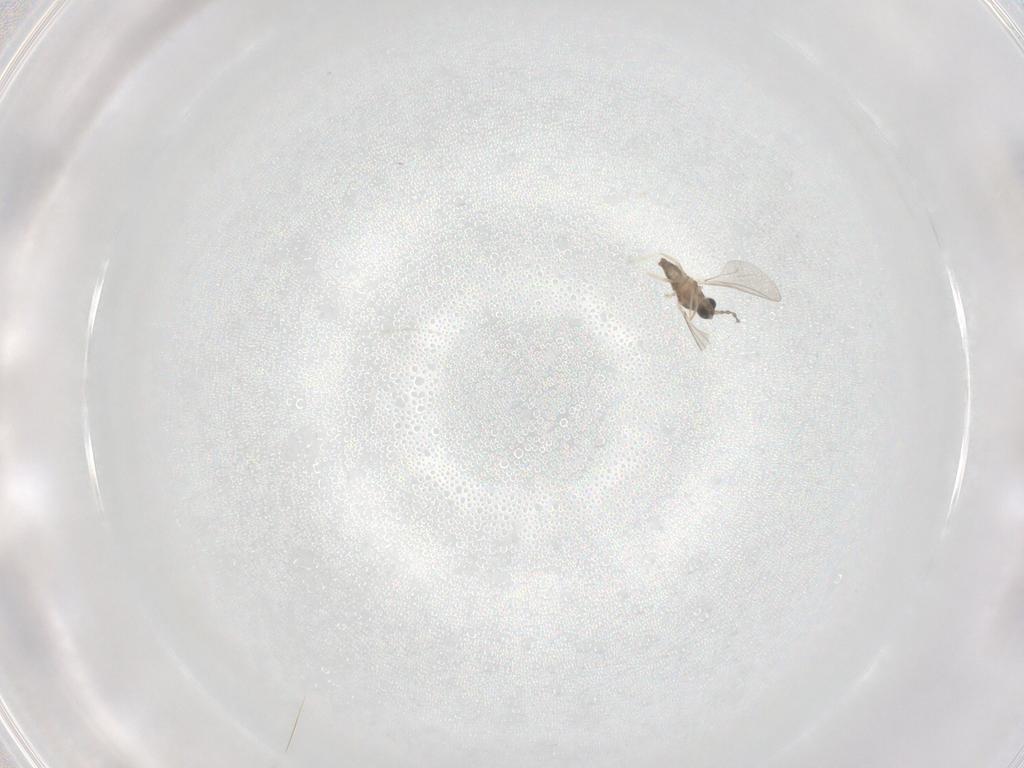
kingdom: Animalia
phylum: Arthropoda
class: Insecta
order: Diptera
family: Cecidomyiidae
